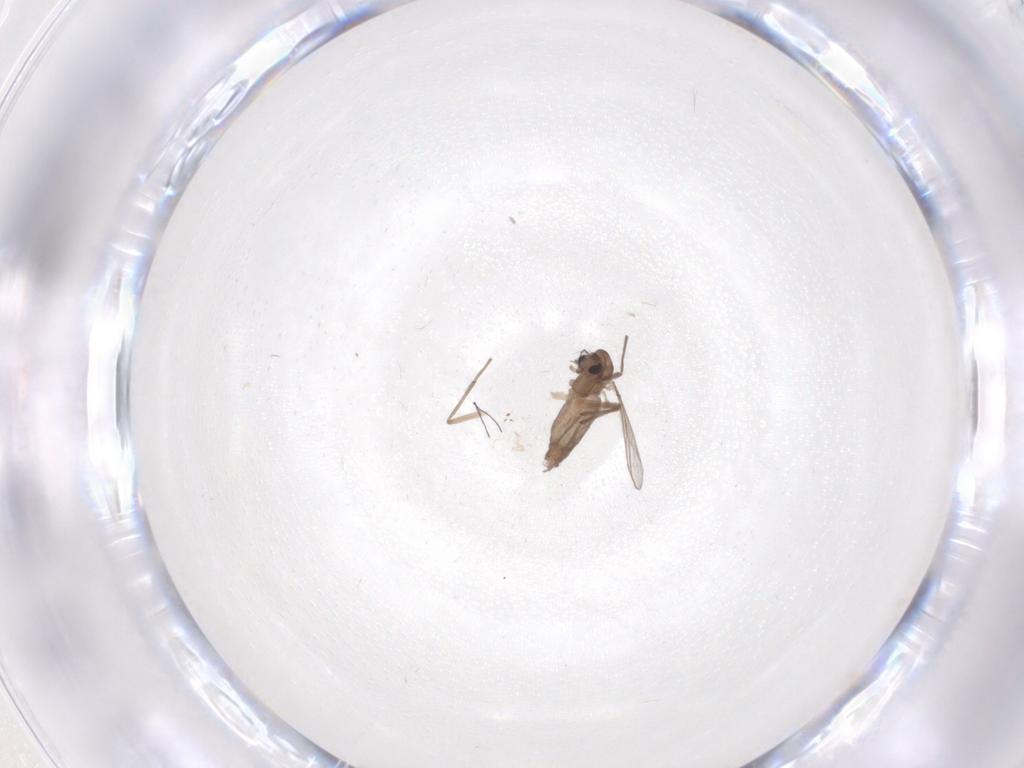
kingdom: Animalia
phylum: Arthropoda
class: Insecta
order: Diptera
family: Chironomidae
